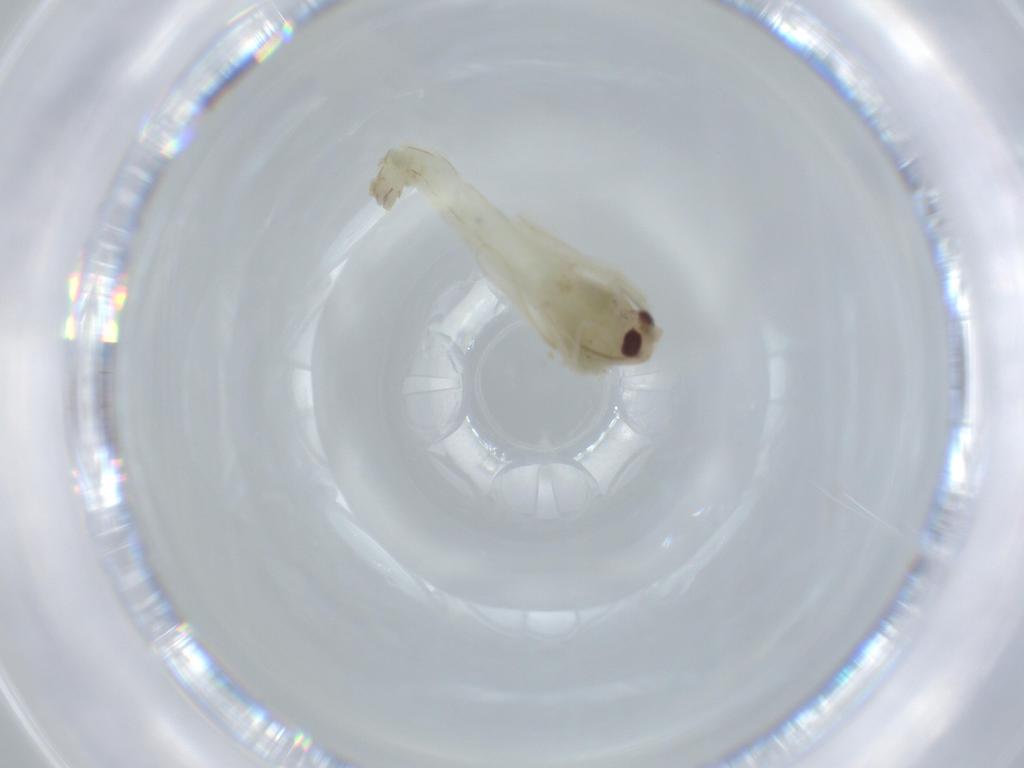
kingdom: Animalia
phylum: Arthropoda
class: Insecta
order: Diptera
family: Chironomidae
